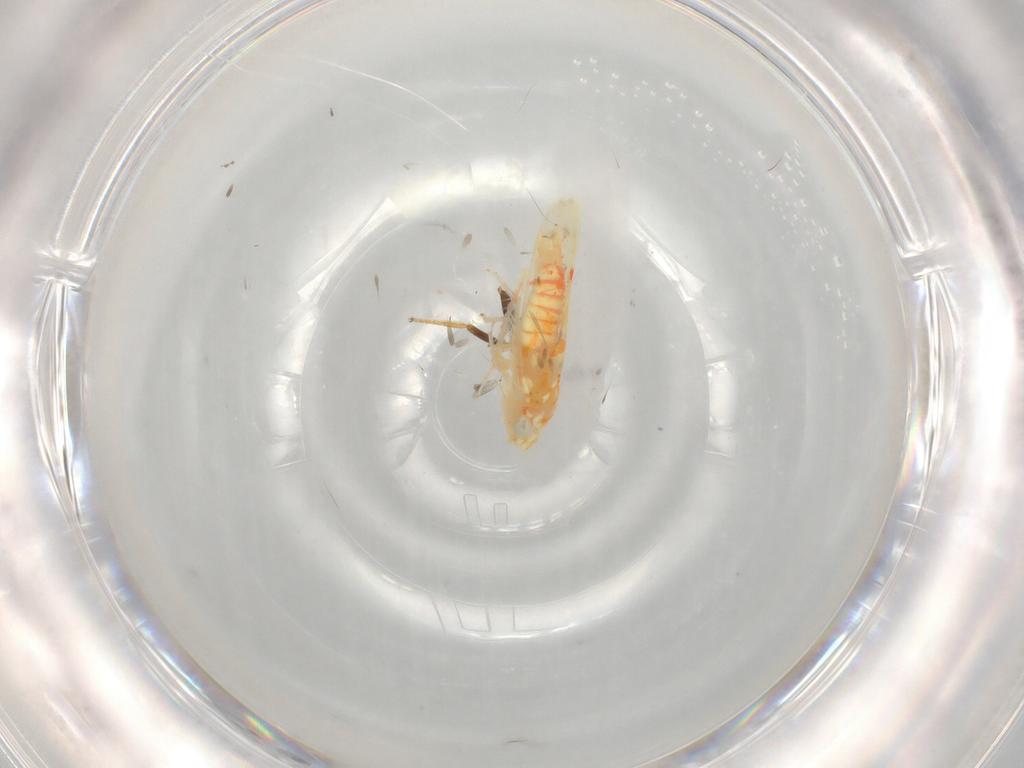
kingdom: Animalia
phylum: Arthropoda
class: Insecta
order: Hemiptera
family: Cicadellidae
